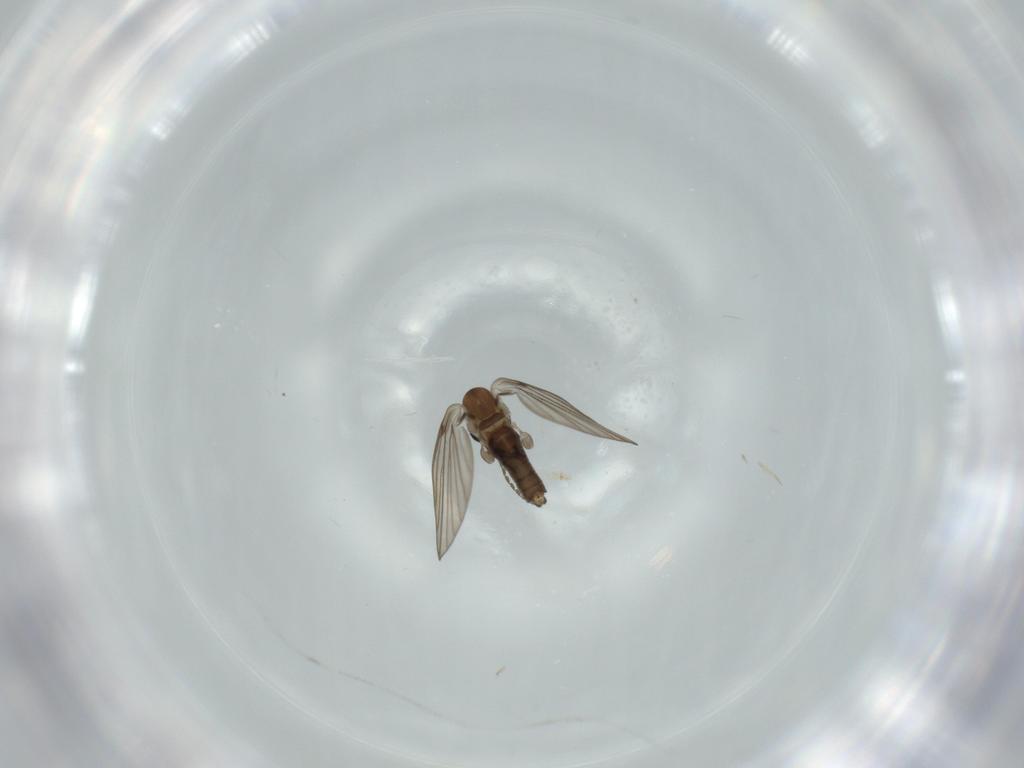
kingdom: Animalia
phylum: Arthropoda
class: Insecta
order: Diptera
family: Psychodidae
